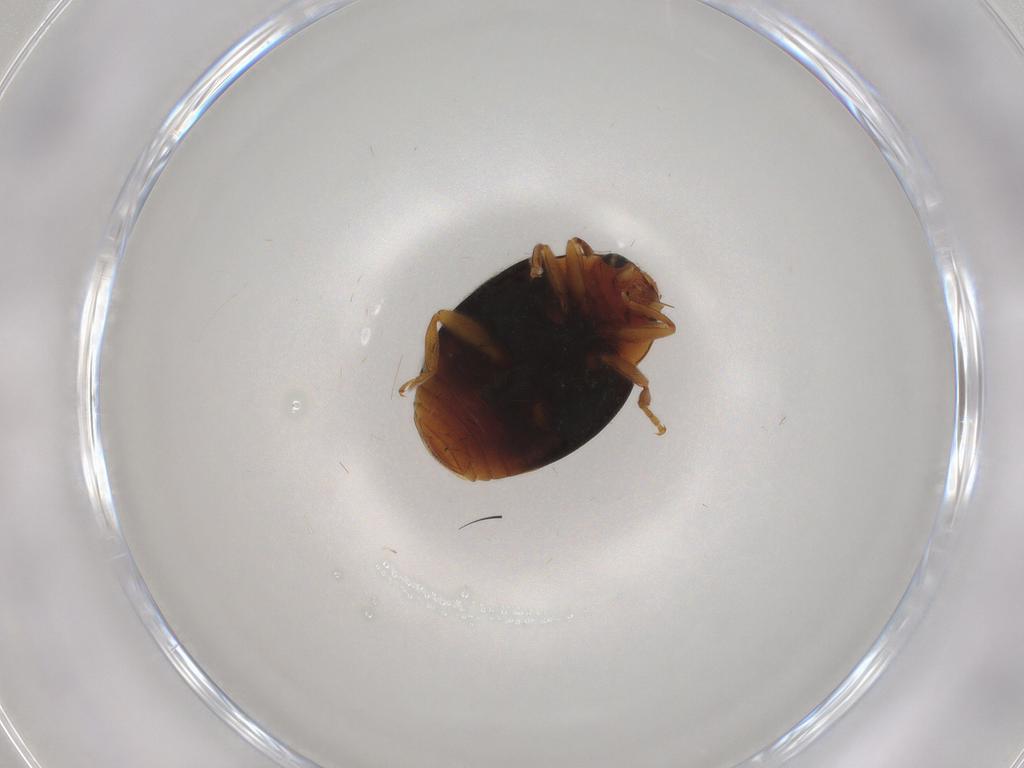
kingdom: Animalia
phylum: Arthropoda
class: Insecta
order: Coleoptera
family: Coccinellidae
